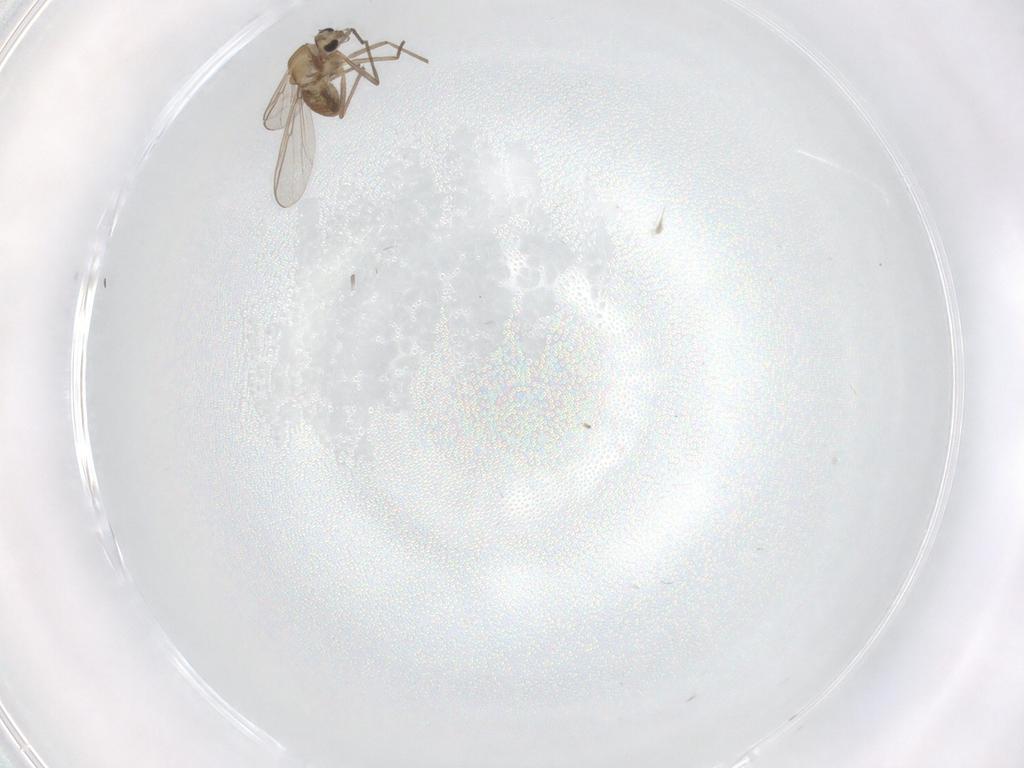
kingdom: Animalia
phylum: Arthropoda
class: Insecta
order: Diptera
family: Chironomidae
